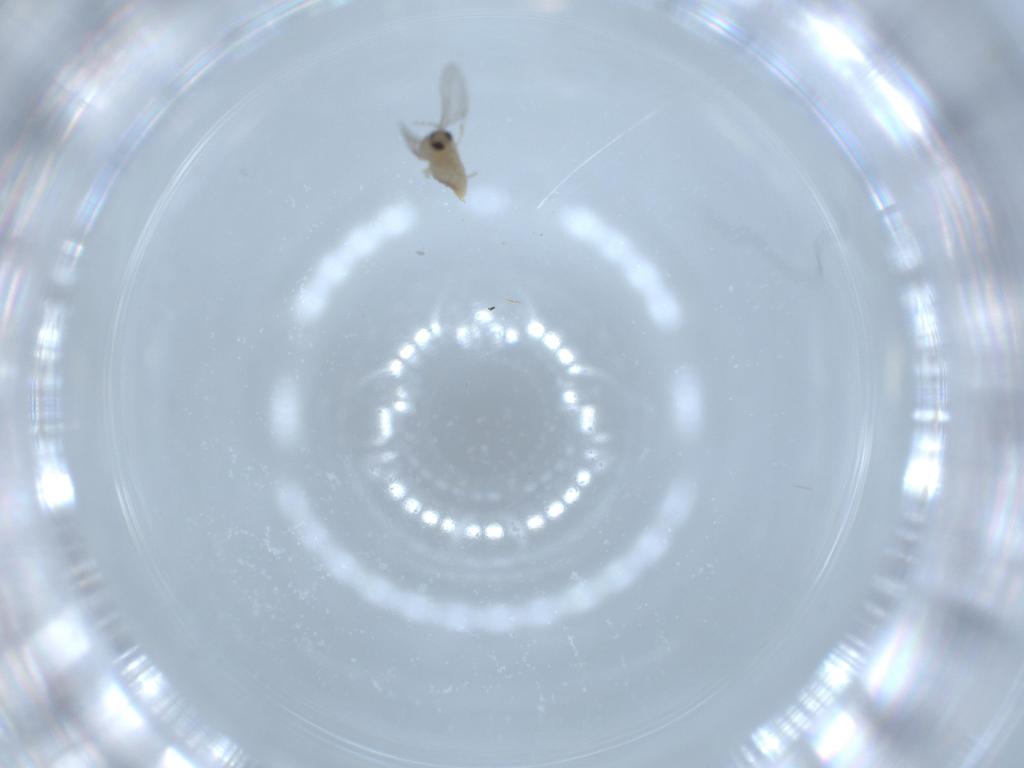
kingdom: Animalia
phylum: Arthropoda
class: Insecta
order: Diptera
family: Cecidomyiidae
